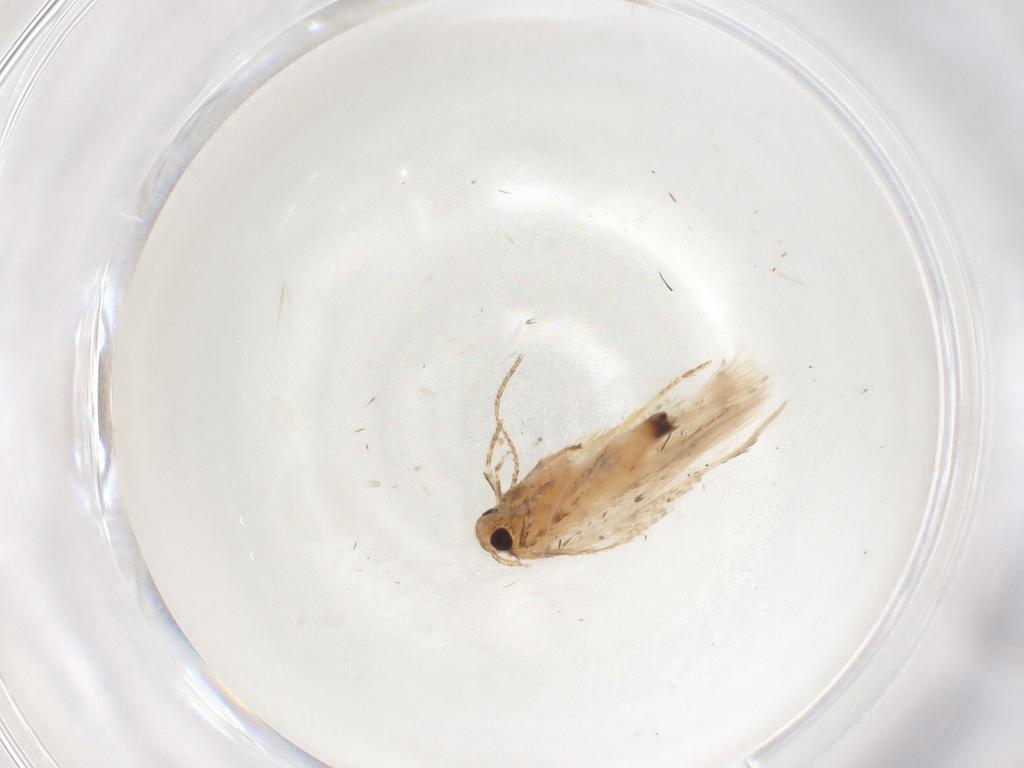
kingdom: Animalia
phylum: Arthropoda
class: Insecta
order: Lepidoptera
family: Gelechiidae
